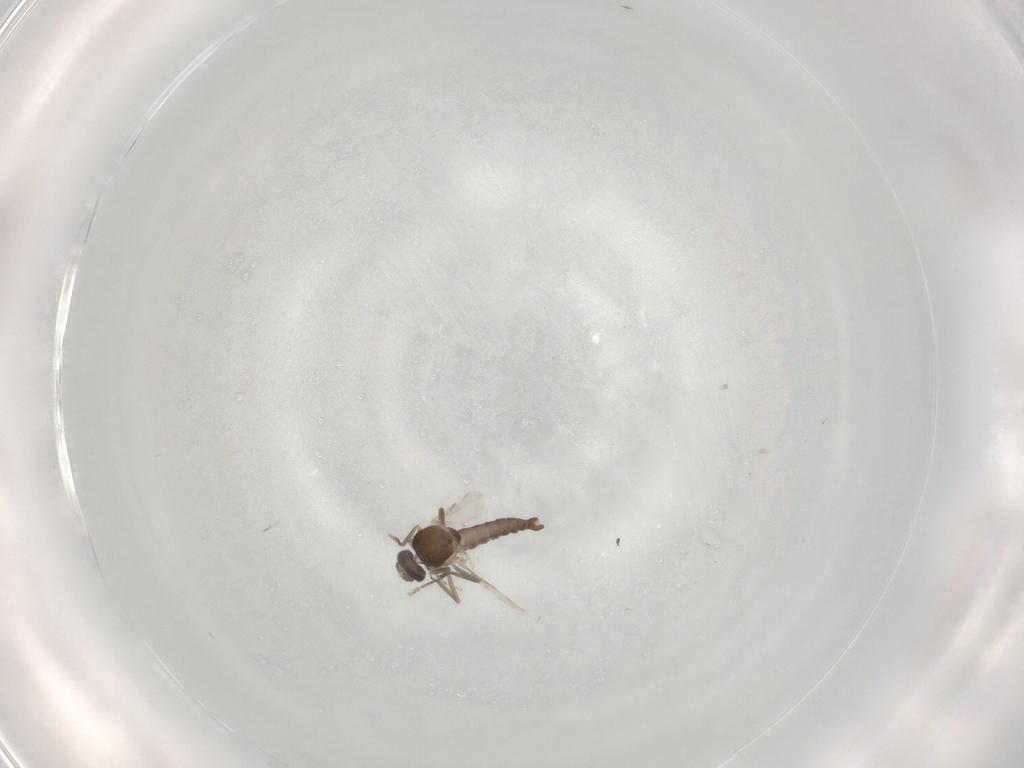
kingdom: Animalia
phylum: Arthropoda
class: Insecta
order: Diptera
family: Ceratopogonidae
